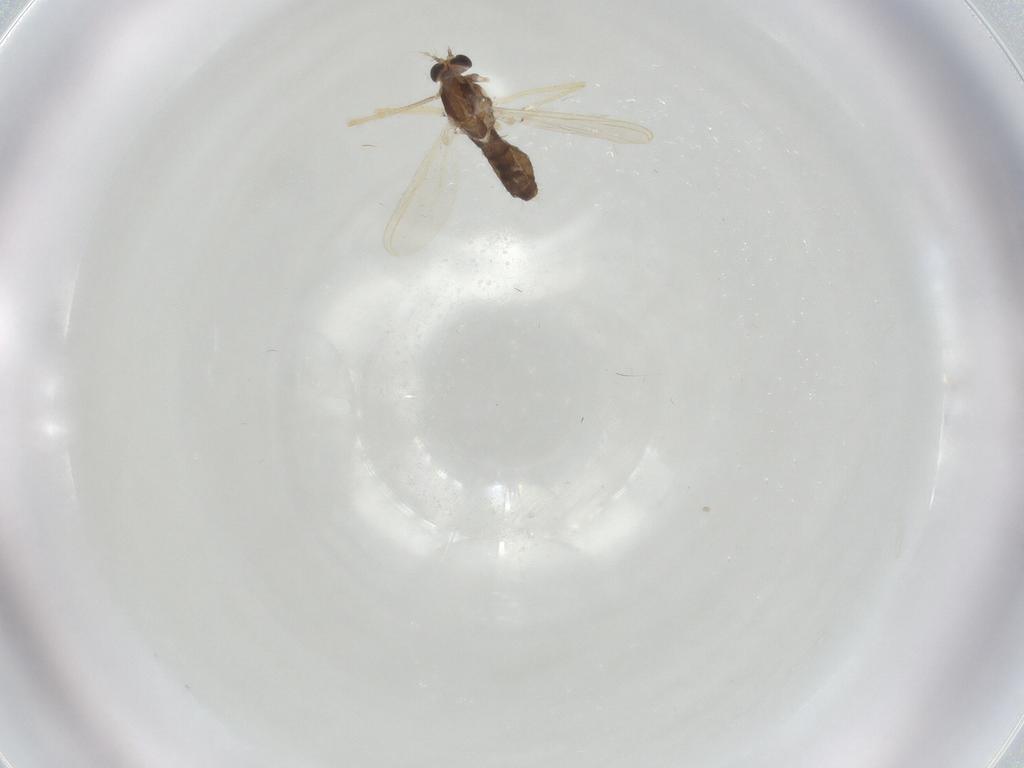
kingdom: Animalia
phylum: Arthropoda
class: Insecta
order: Diptera
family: Chironomidae
